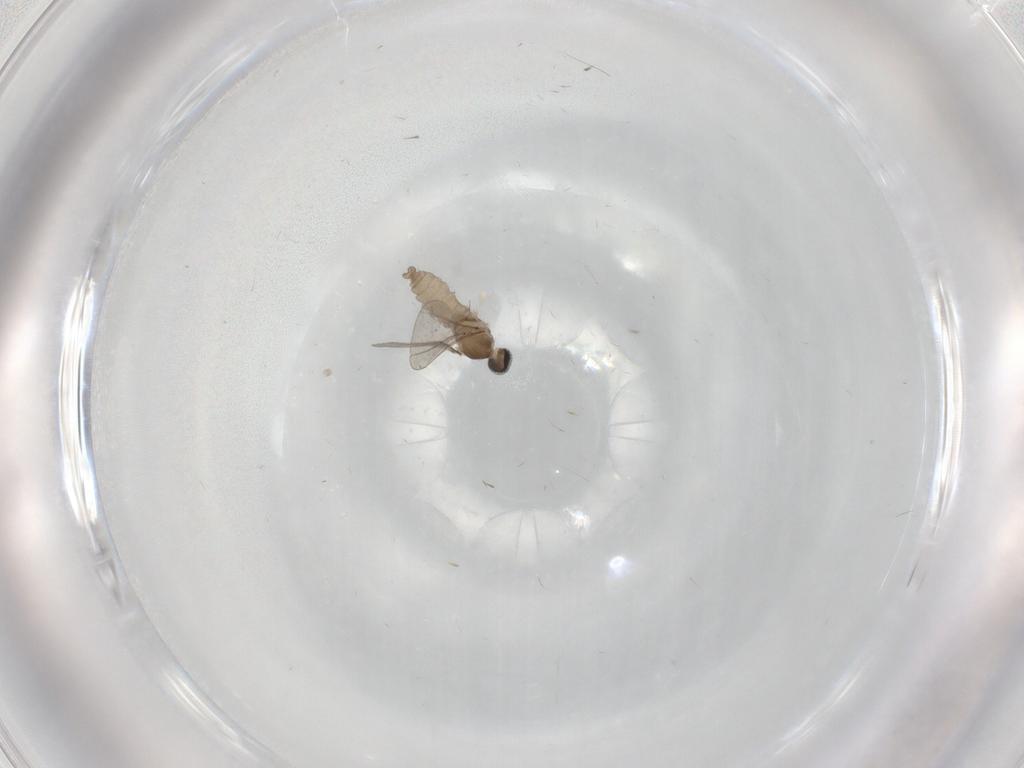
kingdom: Animalia
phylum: Arthropoda
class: Insecta
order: Diptera
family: Cecidomyiidae
